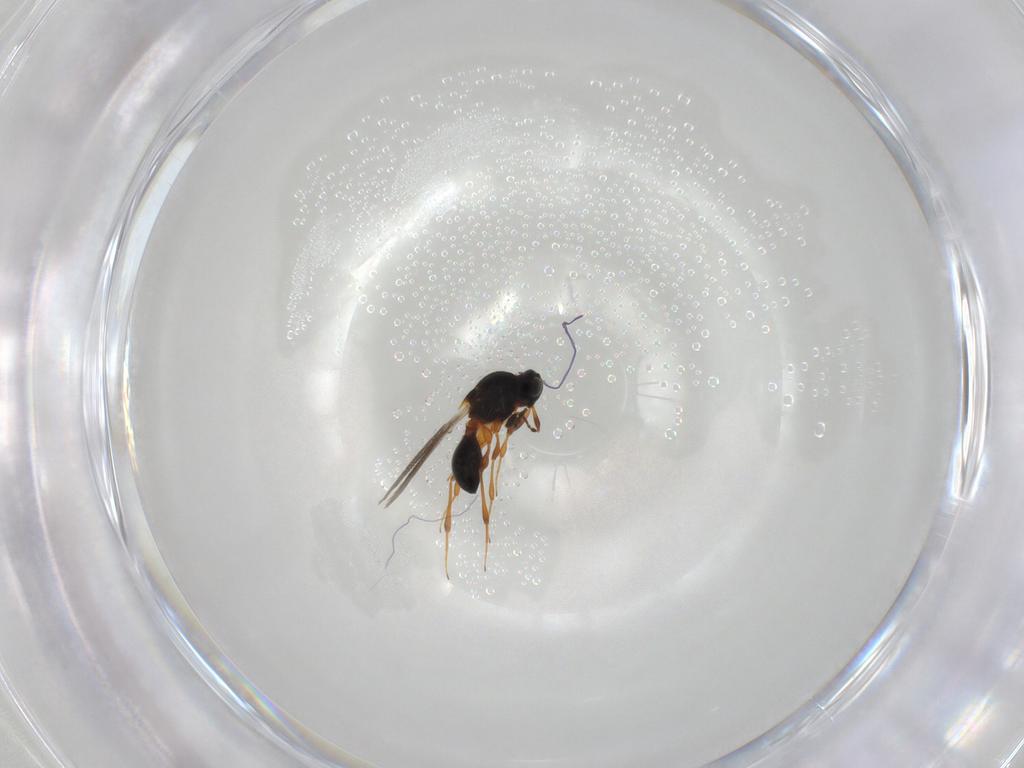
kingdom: Animalia
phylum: Arthropoda
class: Insecta
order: Hymenoptera
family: Platygastridae
